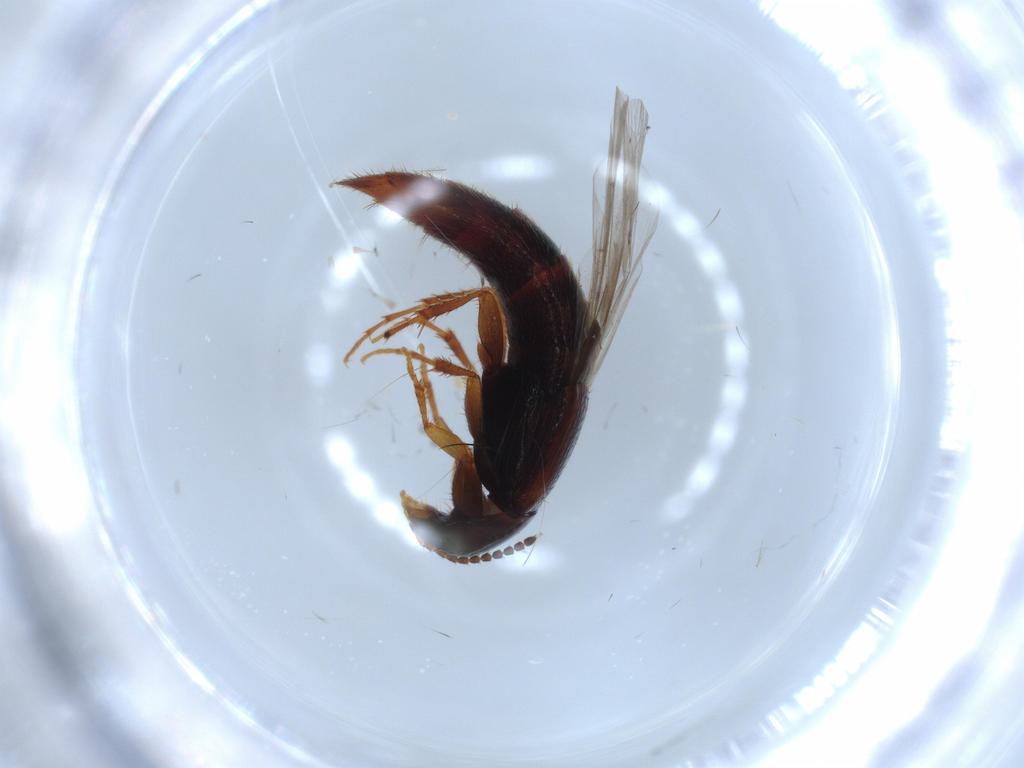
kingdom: Animalia
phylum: Arthropoda
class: Insecta
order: Coleoptera
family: Staphylinidae
